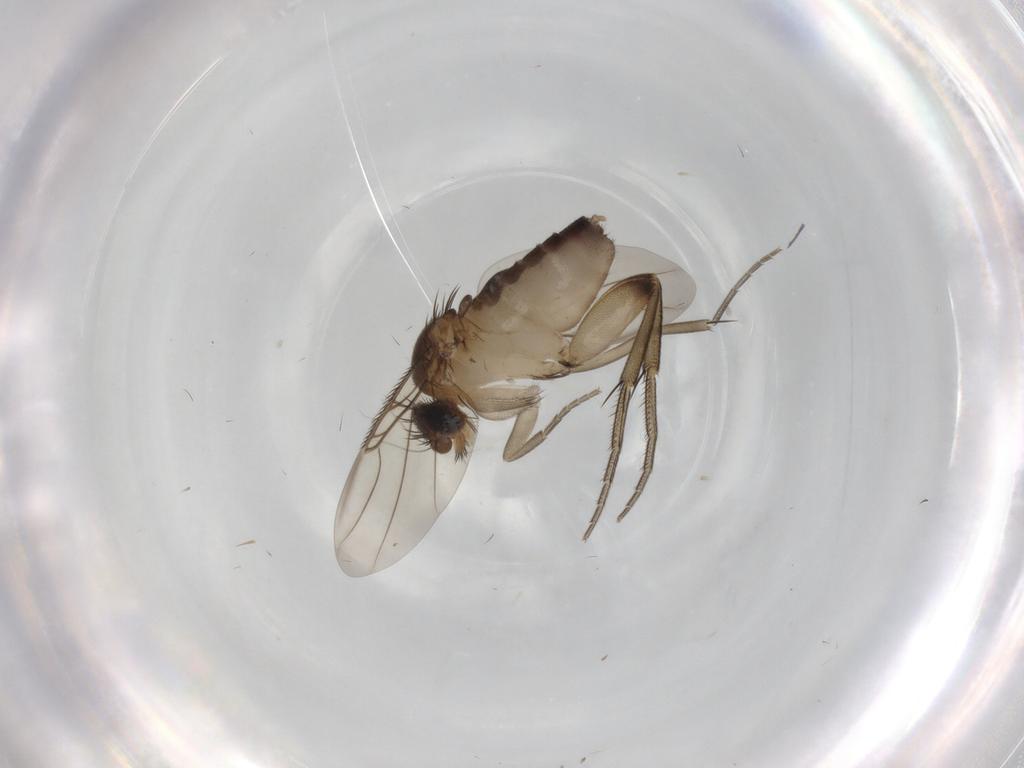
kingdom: Animalia
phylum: Arthropoda
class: Insecta
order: Diptera
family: Phoridae
